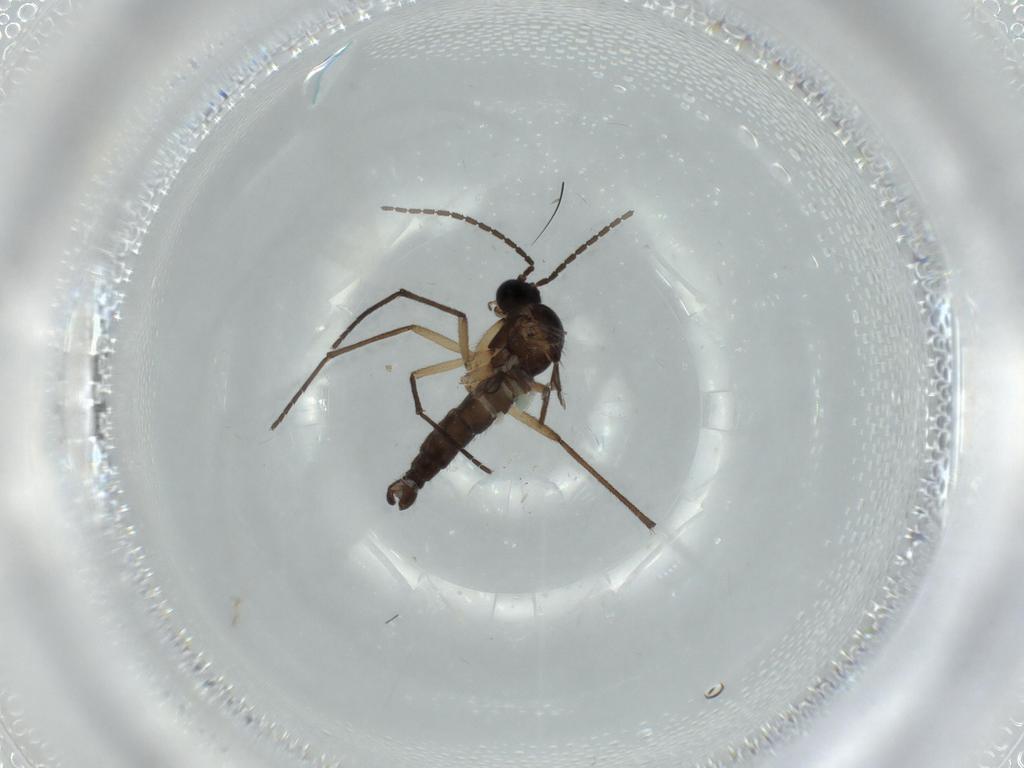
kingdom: Animalia
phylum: Arthropoda
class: Insecta
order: Diptera
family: Sciaridae
